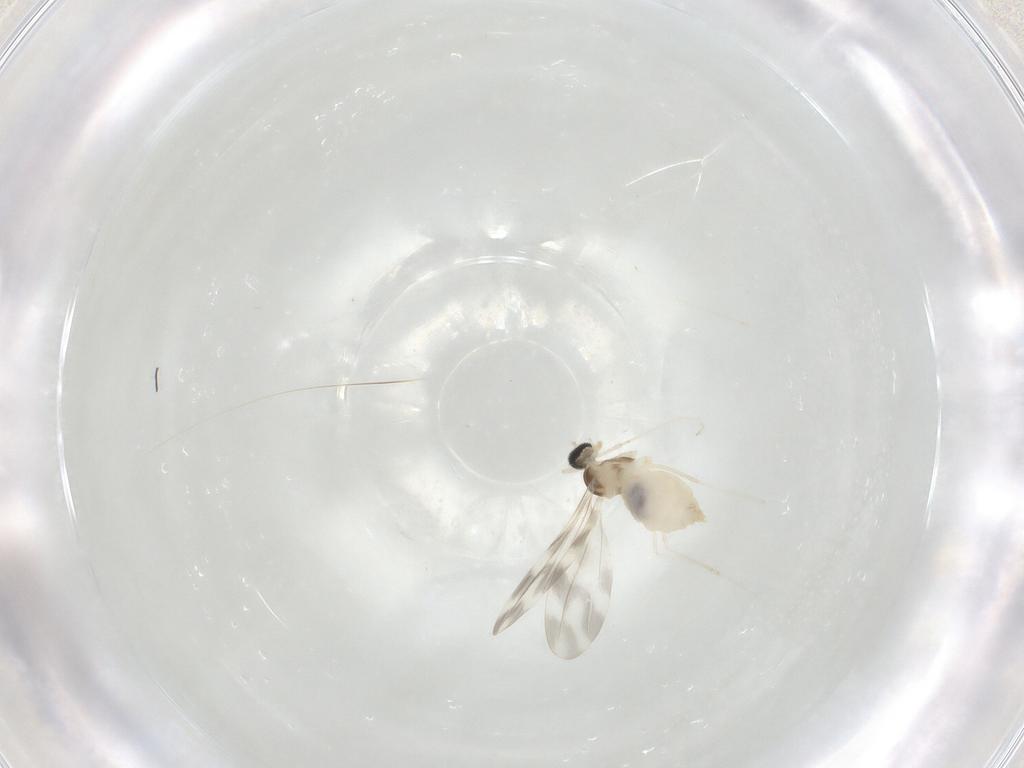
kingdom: Animalia
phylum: Arthropoda
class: Insecta
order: Diptera
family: Cecidomyiidae
